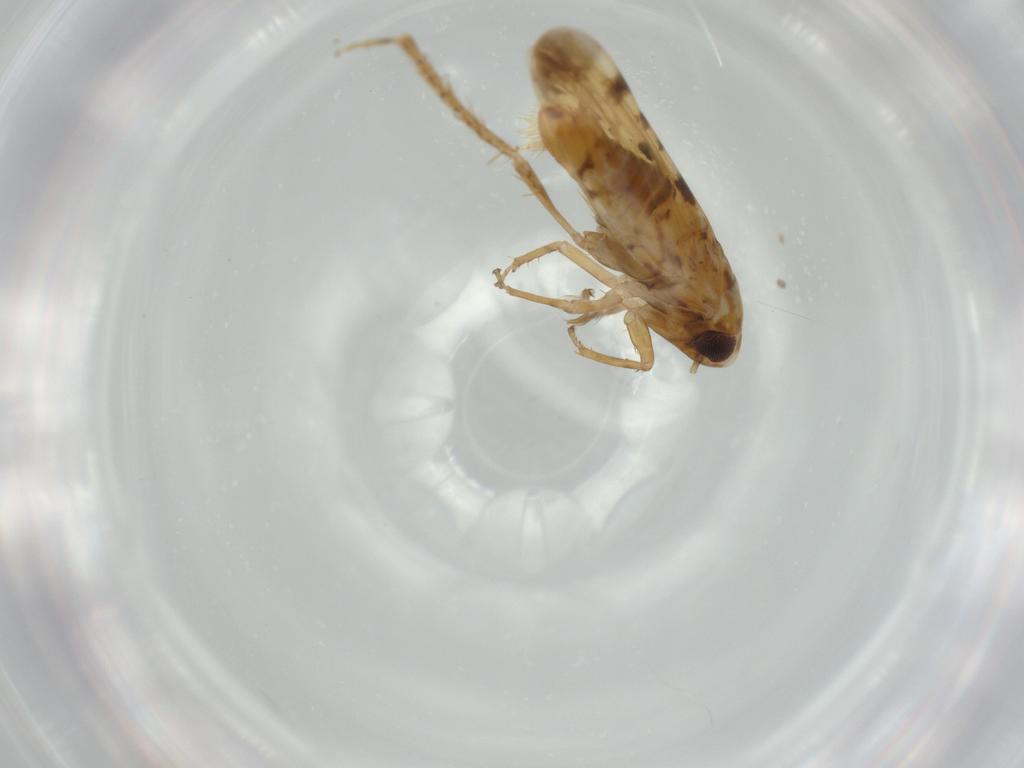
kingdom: Animalia
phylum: Arthropoda
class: Insecta
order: Hemiptera
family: Cicadellidae
